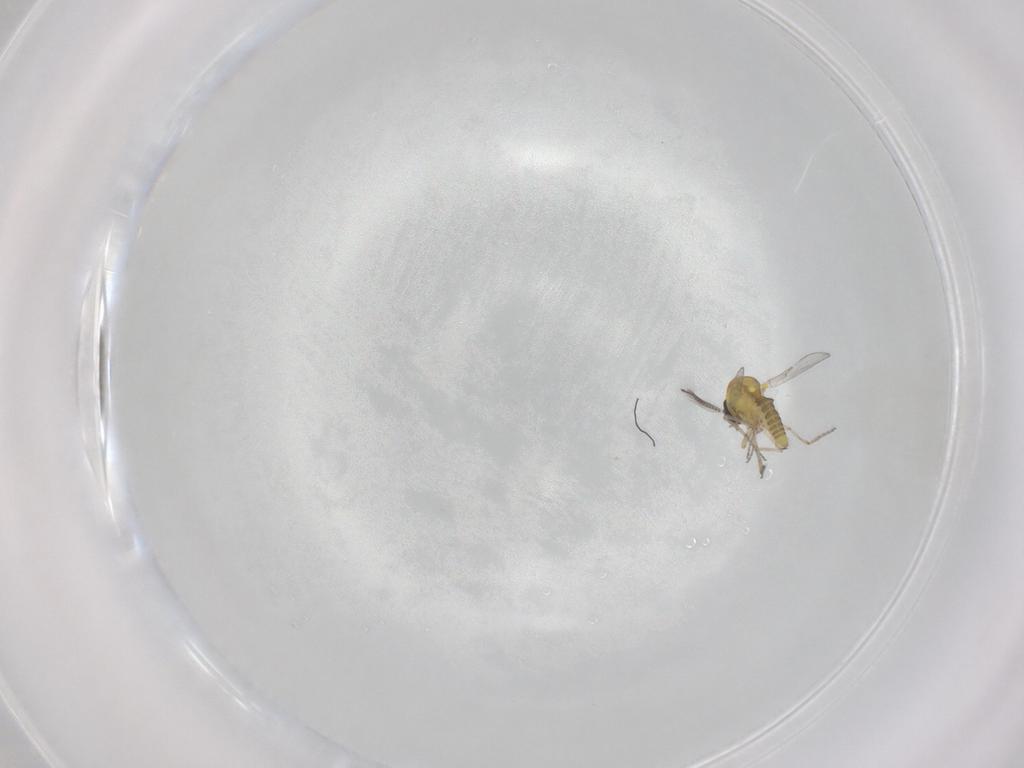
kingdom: Animalia
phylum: Arthropoda
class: Insecta
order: Diptera
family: Ceratopogonidae
